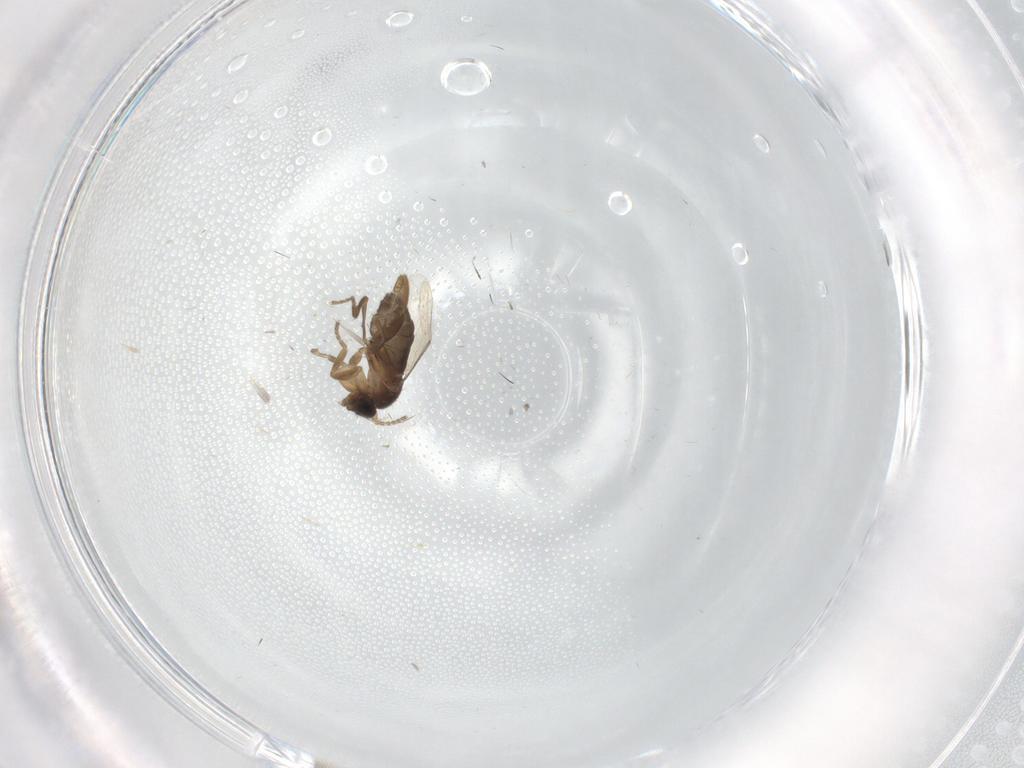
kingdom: Animalia
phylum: Arthropoda
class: Insecta
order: Diptera
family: Phoridae
